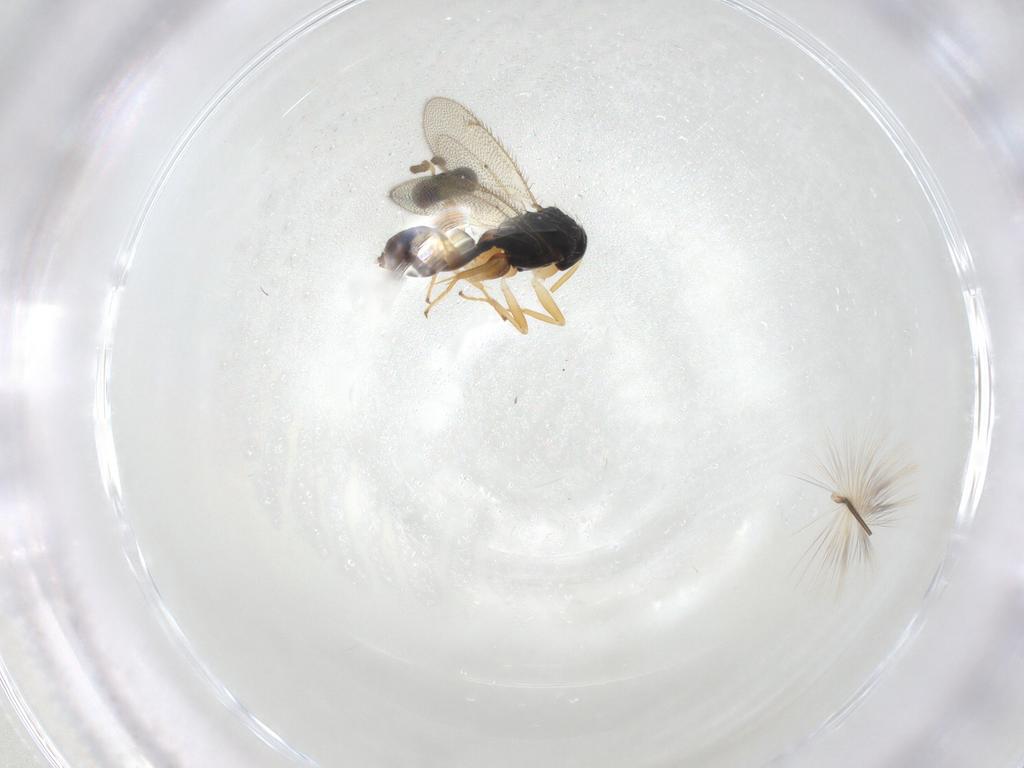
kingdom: Animalia
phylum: Arthropoda
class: Insecta
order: Hymenoptera
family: Eulophidae
